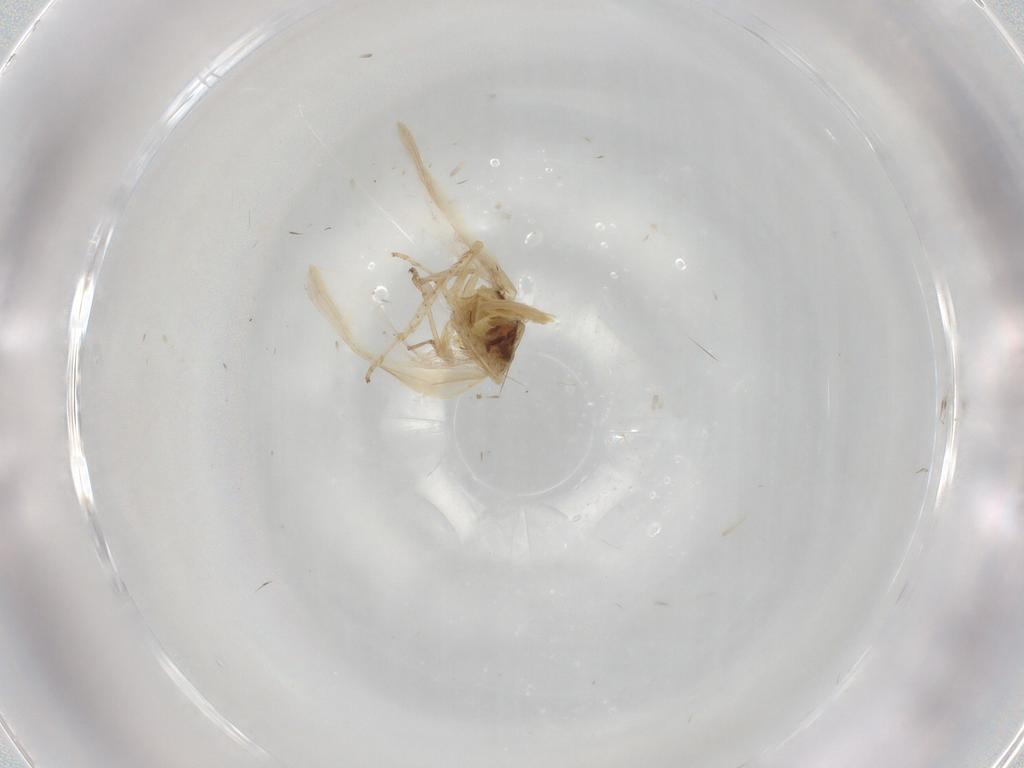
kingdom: Animalia
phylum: Arthropoda
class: Insecta
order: Hemiptera
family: Cicadellidae
